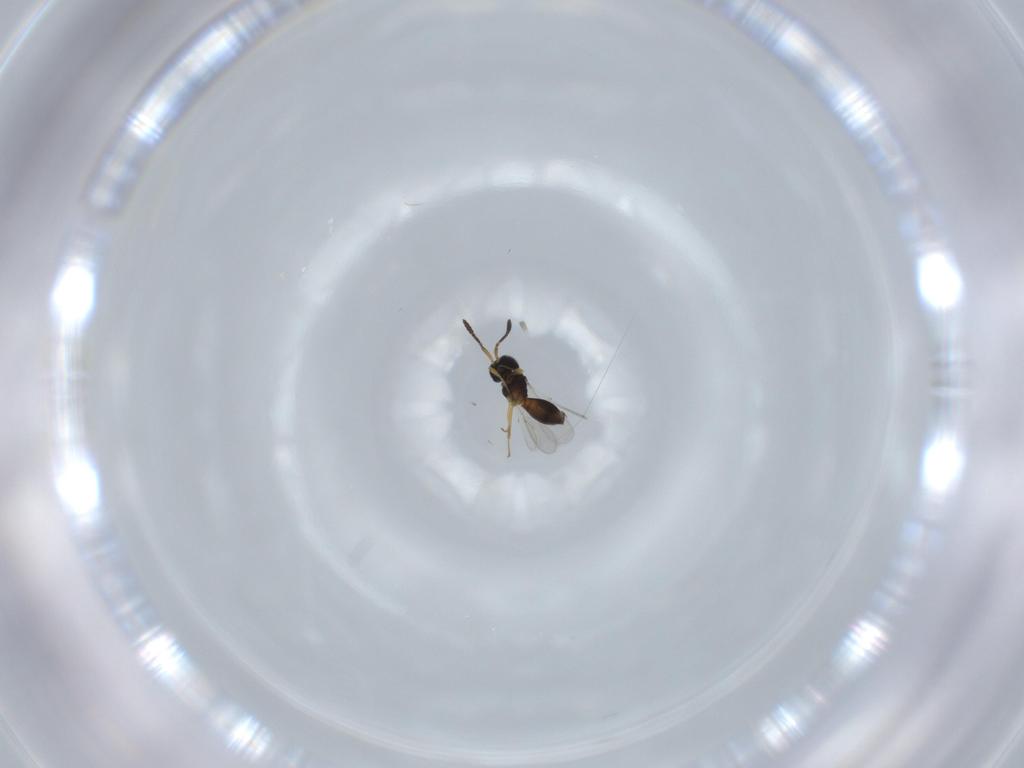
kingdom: Animalia
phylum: Arthropoda
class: Insecta
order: Hymenoptera
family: Scelionidae
